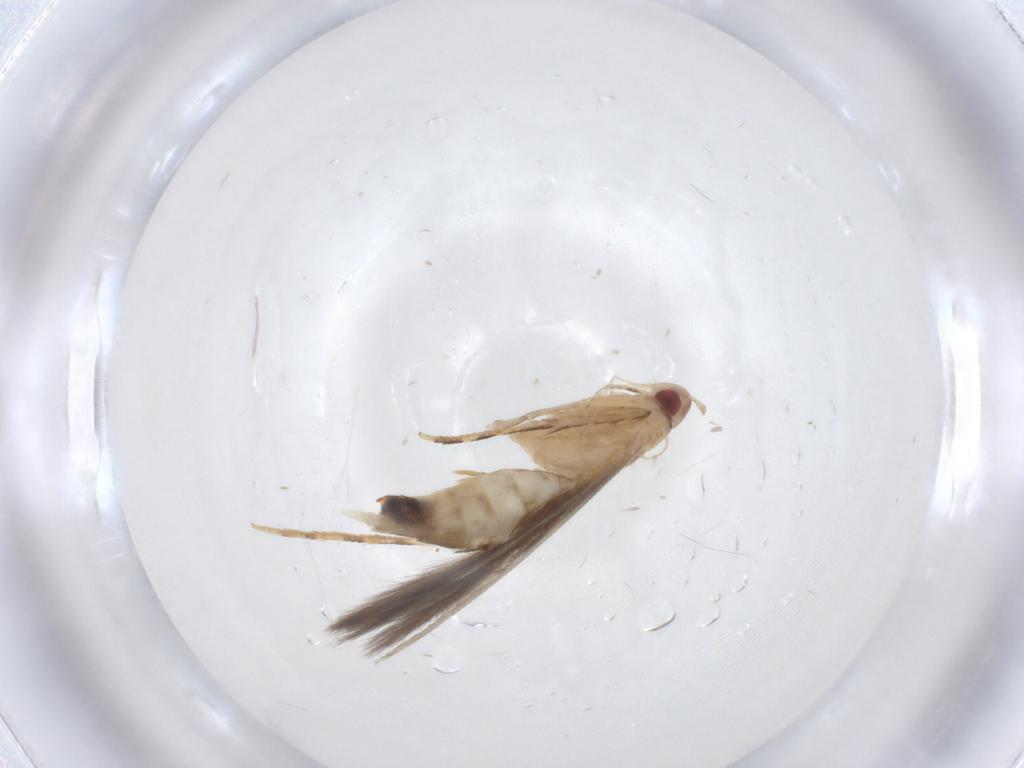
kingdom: Animalia
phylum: Arthropoda
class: Insecta
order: Lepidoptera
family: Cosmopterigidae
